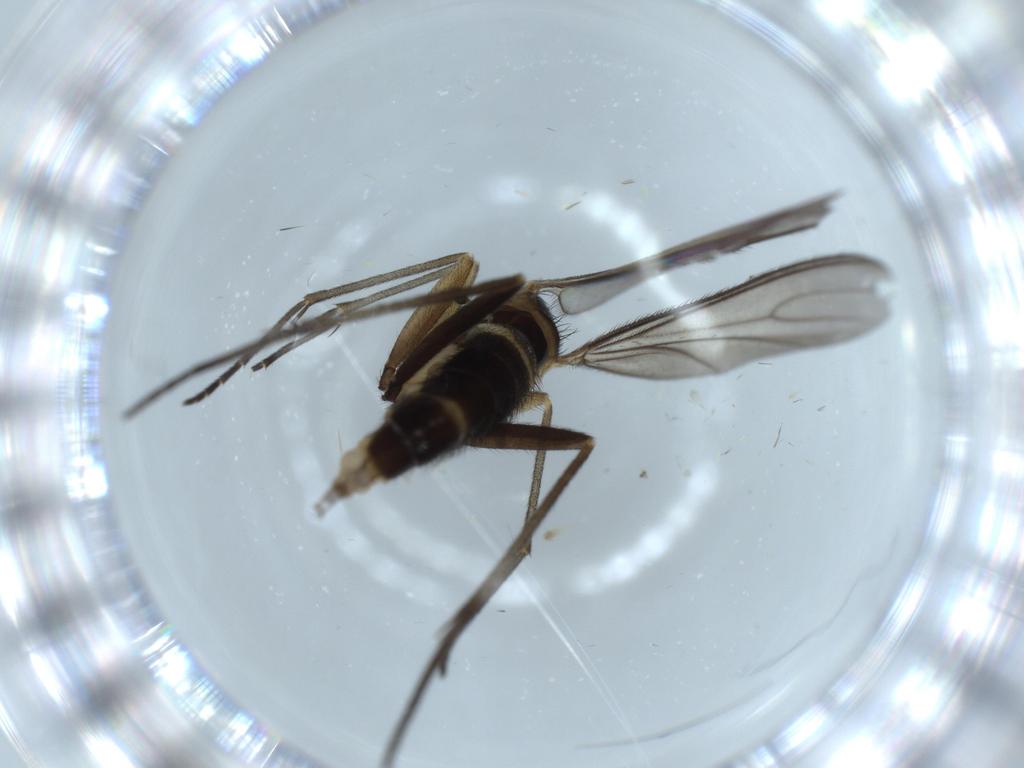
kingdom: Animalia
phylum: Arthropoda
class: Insecta
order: Diptera
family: Sciaridae
